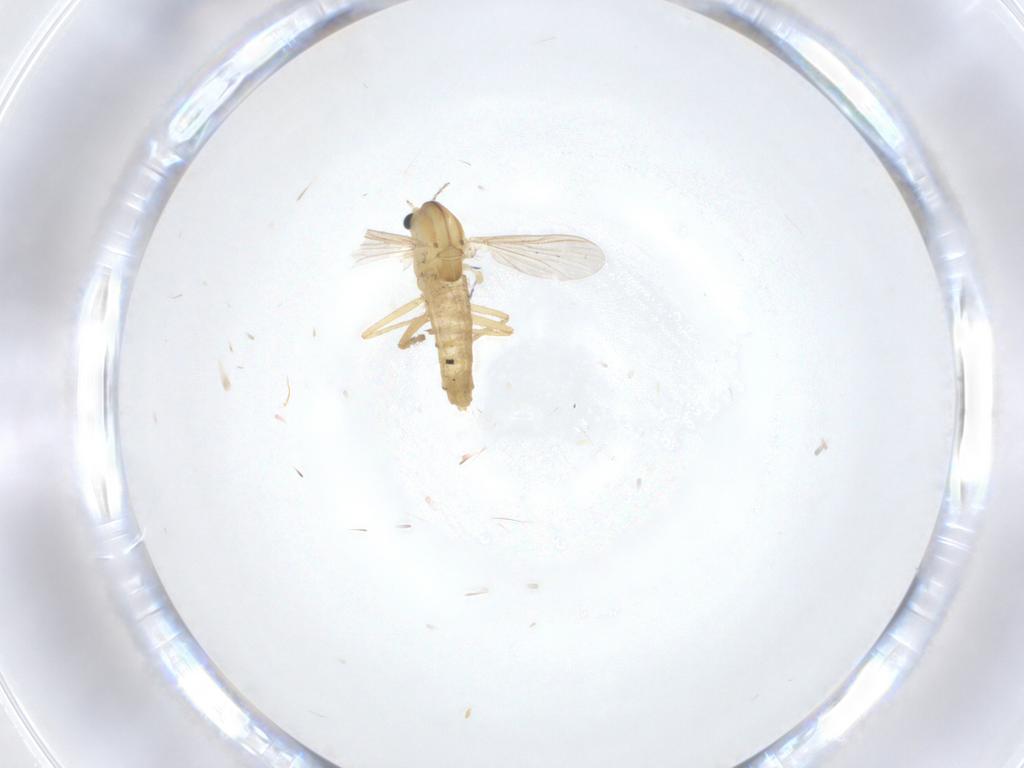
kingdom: Animalia
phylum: Arthropoda
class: Insecta
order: Diptera
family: Chironomidae
